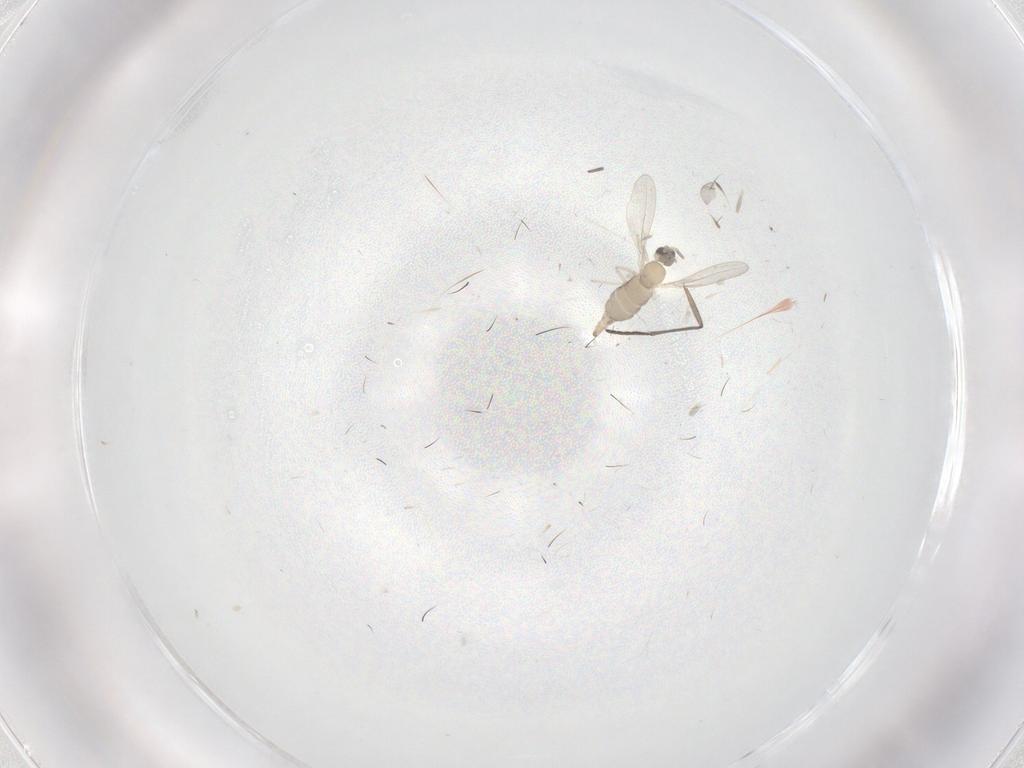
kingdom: Animalia
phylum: Arthropoda
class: Insecta
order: Diptera
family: Cecidomyiidae
